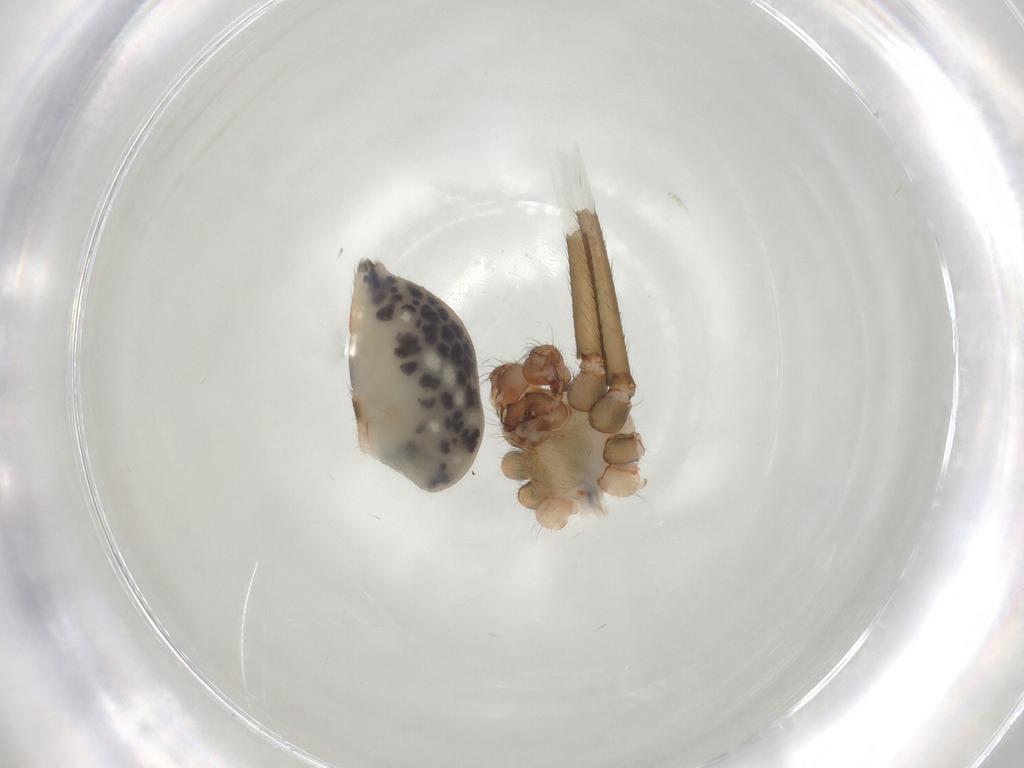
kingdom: Animalia
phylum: Arthropoda
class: Arachnida
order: Araneae
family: Pholcidae
